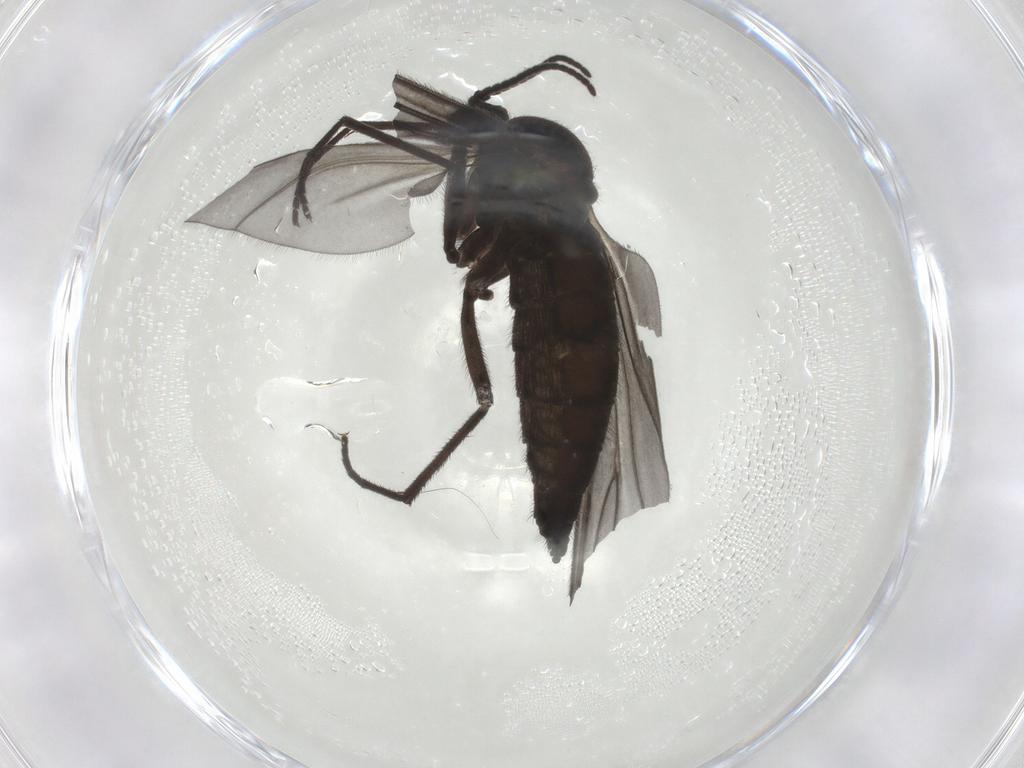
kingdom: Animalia
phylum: Arthropoda
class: Insecta
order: Diptera
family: Sciaridae
